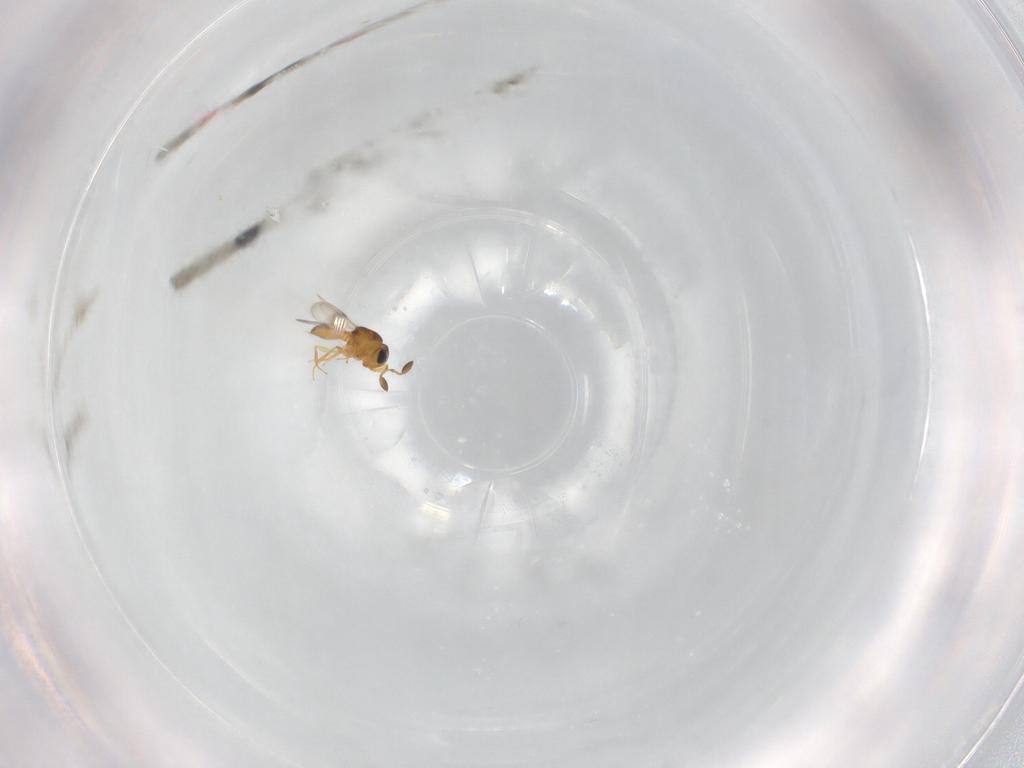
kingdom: Animalia
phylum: Arthropoda
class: Insecta
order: Hymenoptera
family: Scelionidae
